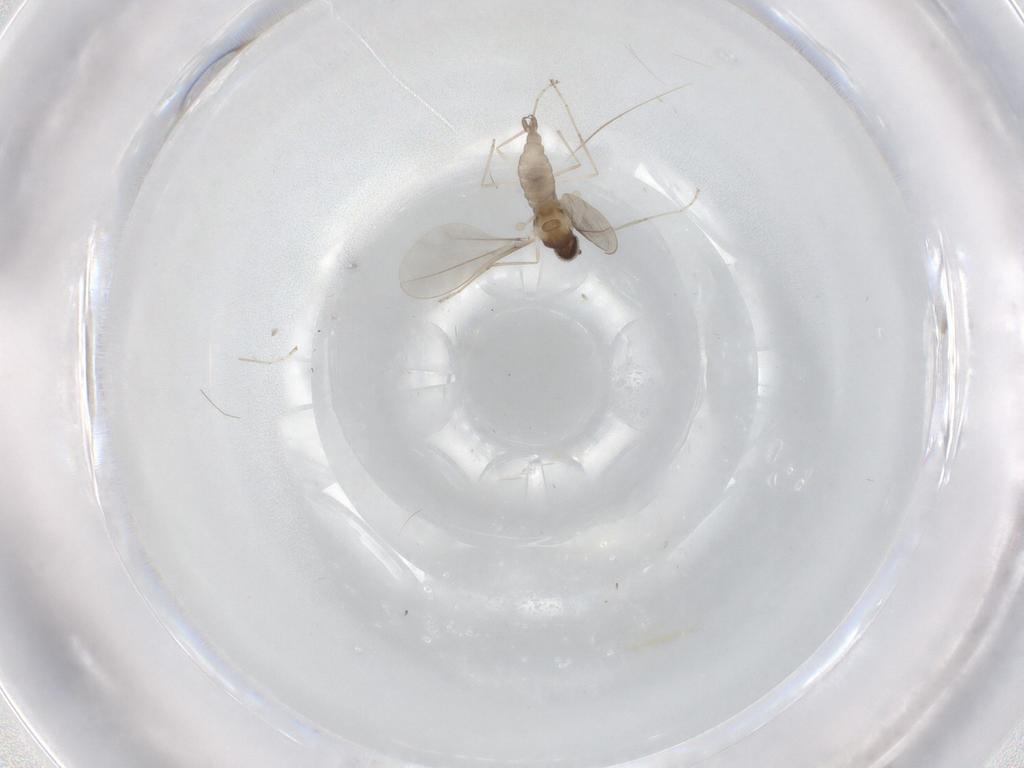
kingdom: Animalia
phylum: Arthropoda
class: Insecta
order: Diptera
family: Cecidomyiidae
